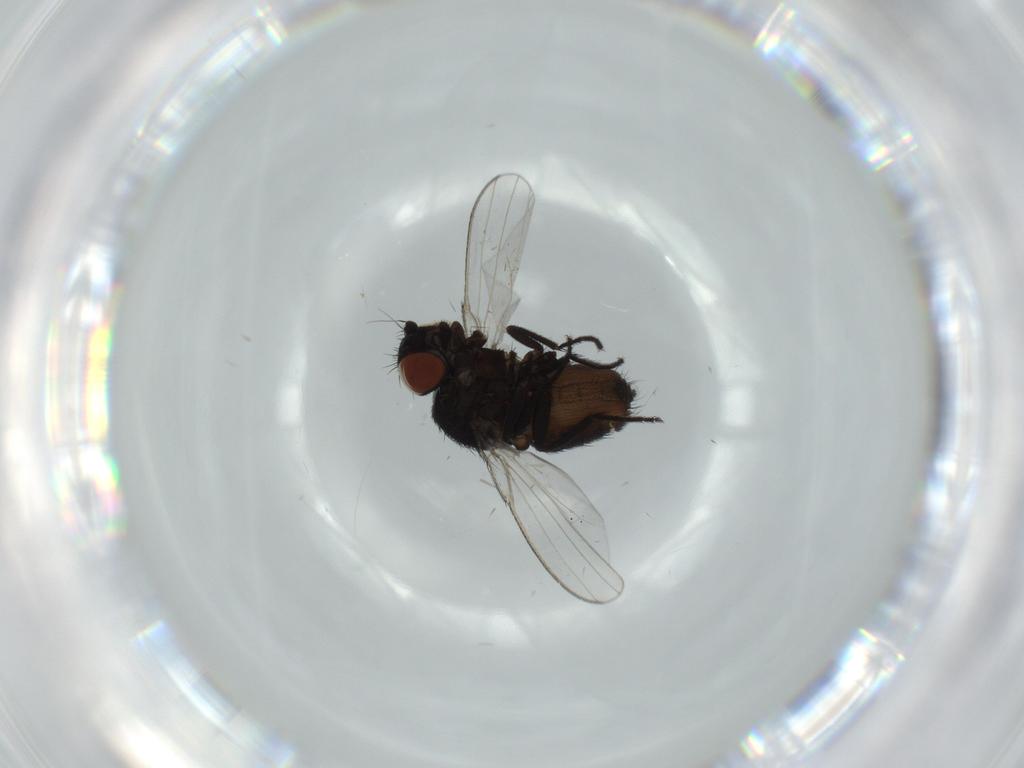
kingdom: Animalia
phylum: Arthropoda
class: Insecta
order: Diptera
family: Milichiidae
